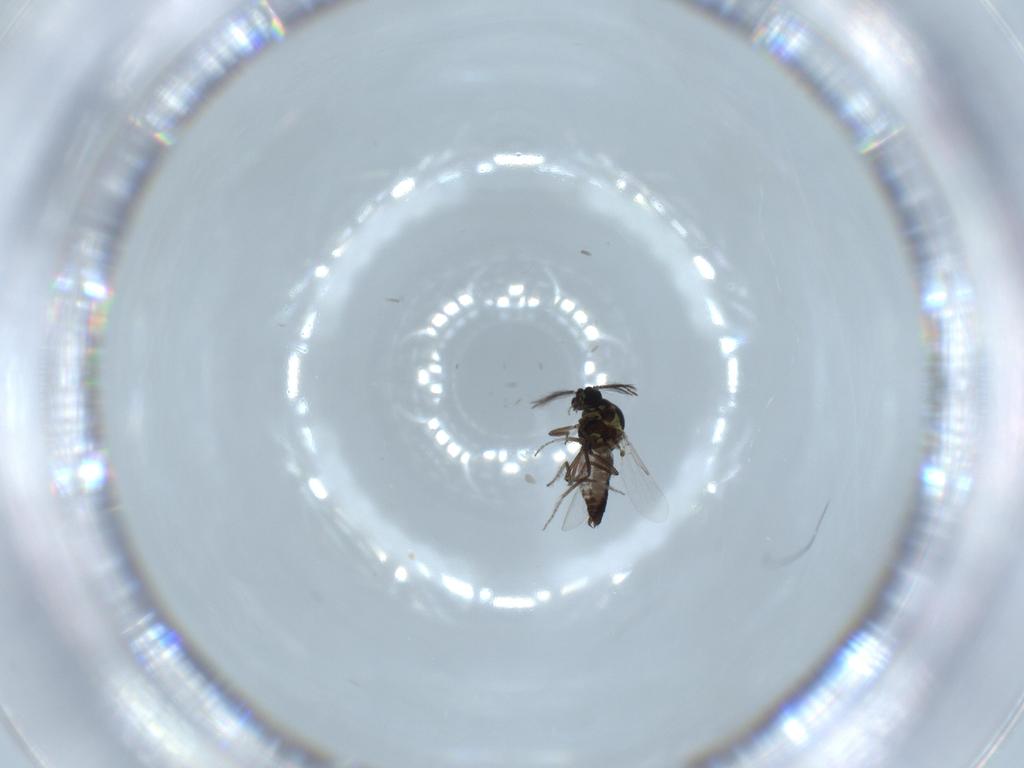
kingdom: Animalia
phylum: Arthropoda
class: Insecta
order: Diptera
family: Ceratopogonidae
